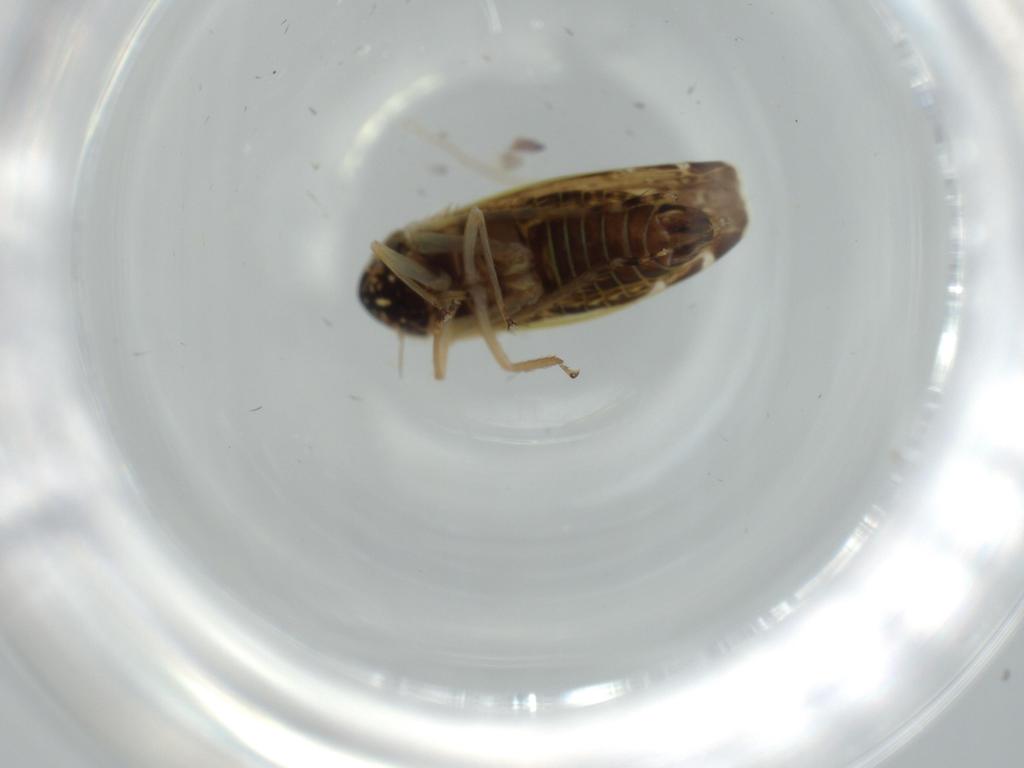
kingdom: Animalia
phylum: Arthropoda
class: Insecta
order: Hemiptera
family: Cicadellidae
